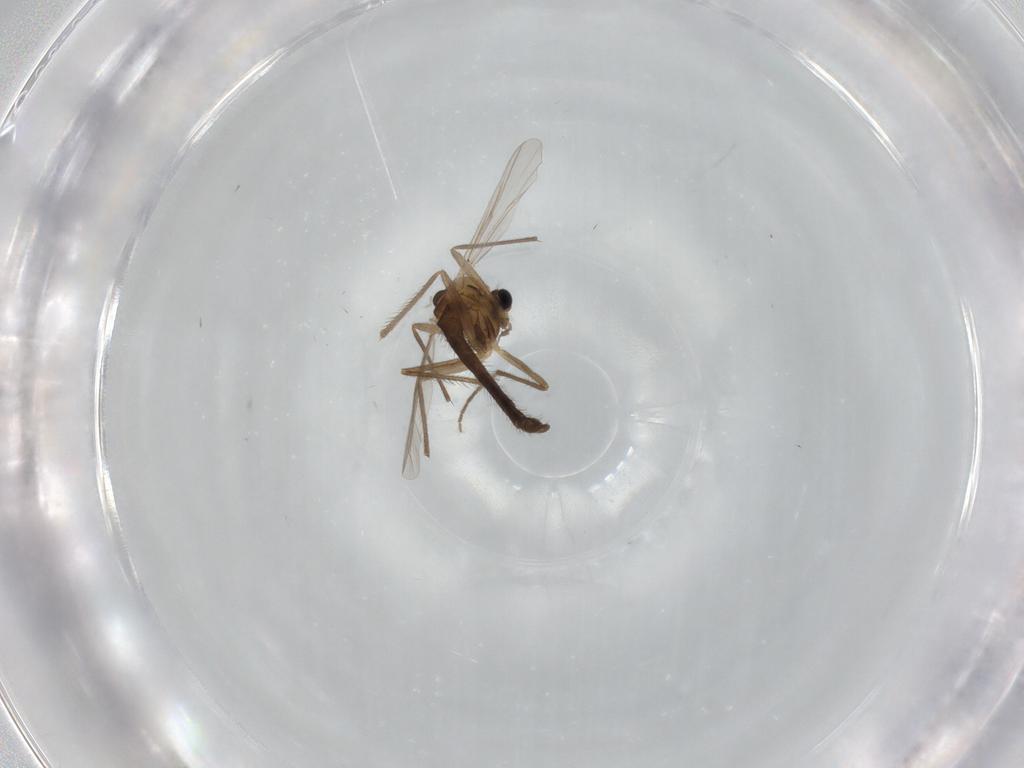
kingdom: Animalia
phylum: Arthropoda
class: Insecta
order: Diptera
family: Chironomidae
